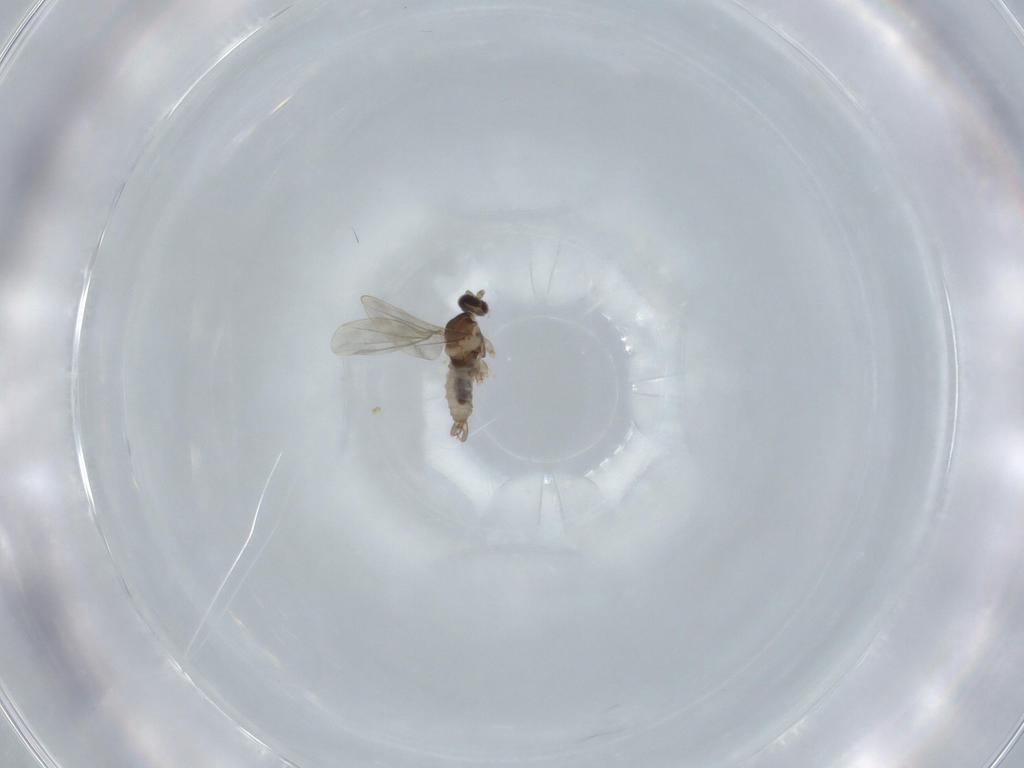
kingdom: Animalia
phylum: Arthropoda
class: Insecta
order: Diptera
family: Cecidomyiidae
